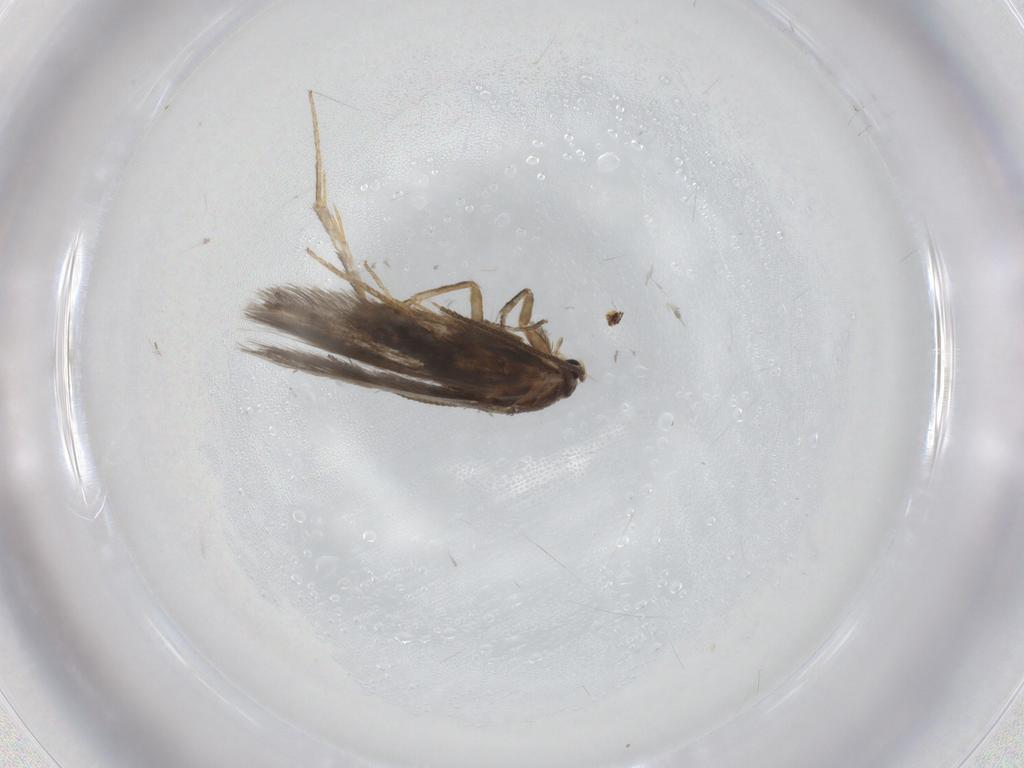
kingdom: Animalia
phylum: Arthropoda
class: Insecta
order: Lepidoptera
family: Nepticulidae
